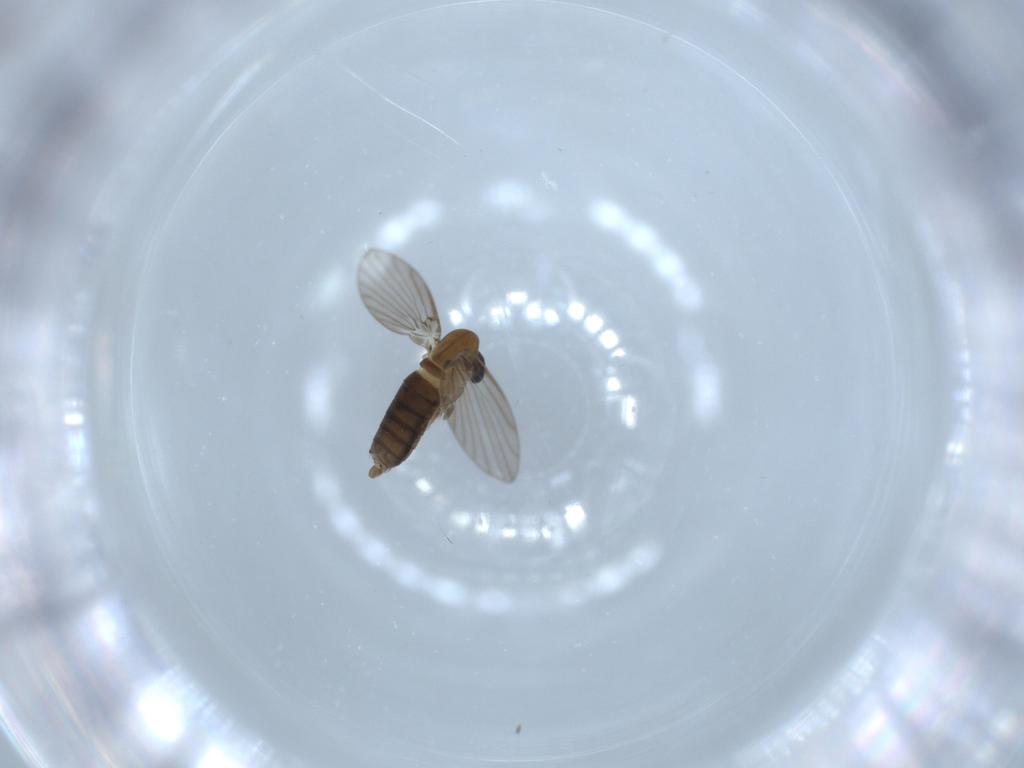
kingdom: Animalia
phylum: Arthropoda
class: Insecta
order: Diptera
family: Psychodidae
